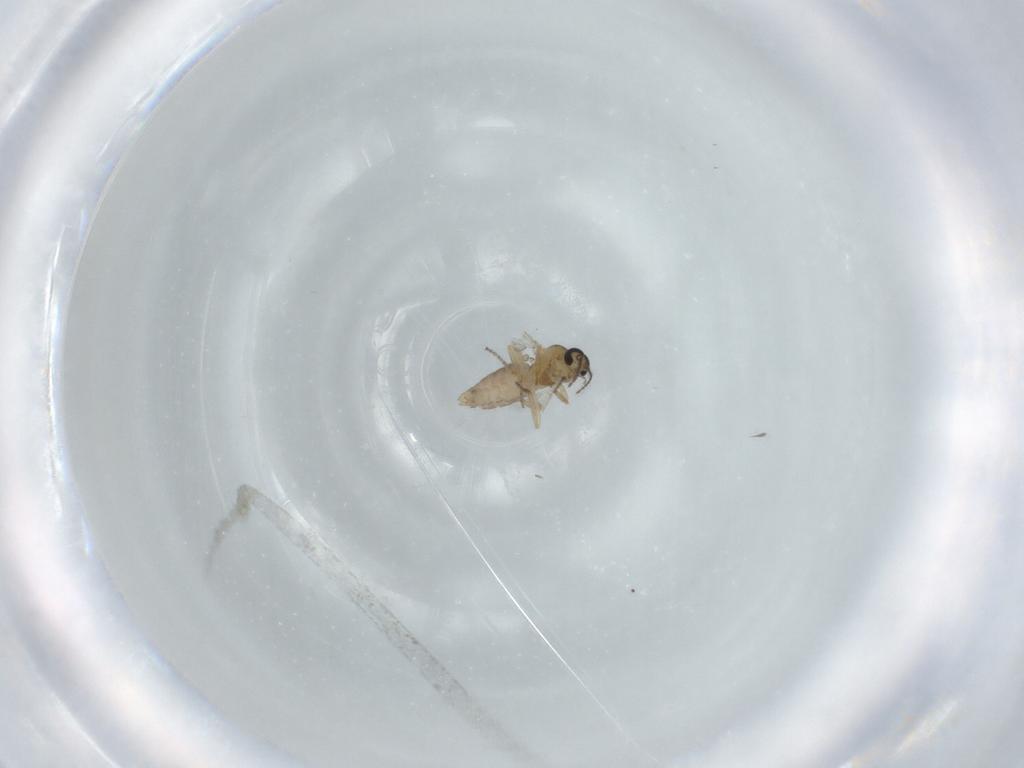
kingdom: Animalia
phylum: Arthropoda
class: Insecta
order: Diptera
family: Ceratopogonidae
